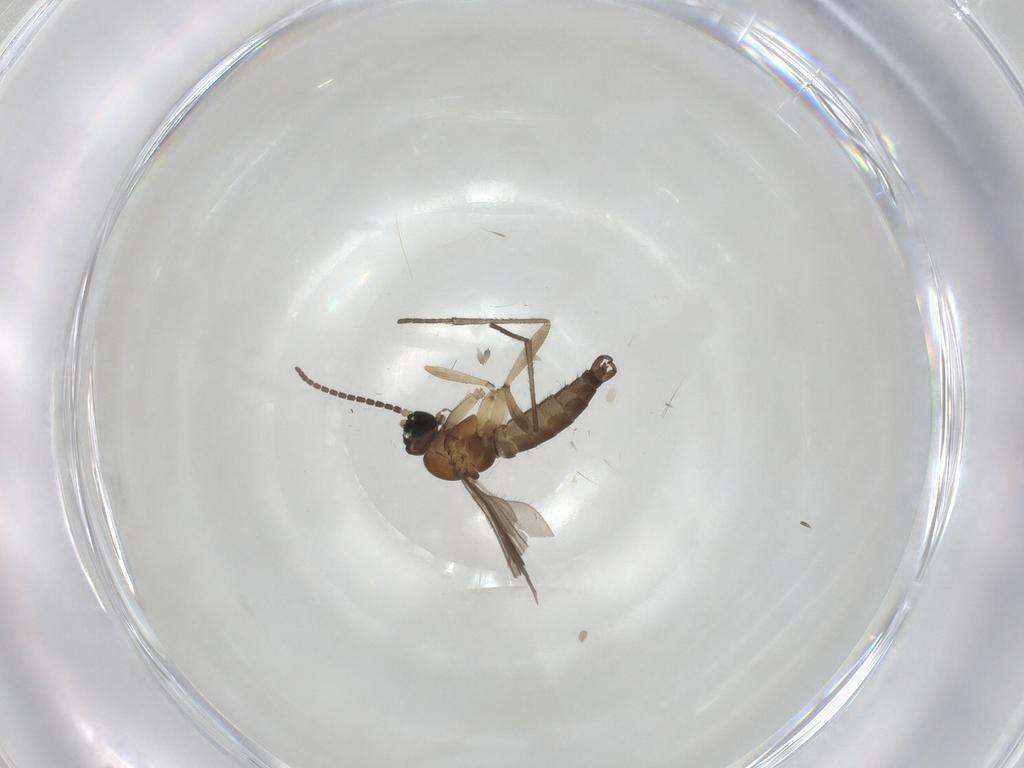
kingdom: Animalia
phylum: Arthropoda
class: Insecta
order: Diptera
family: Sciaridae
